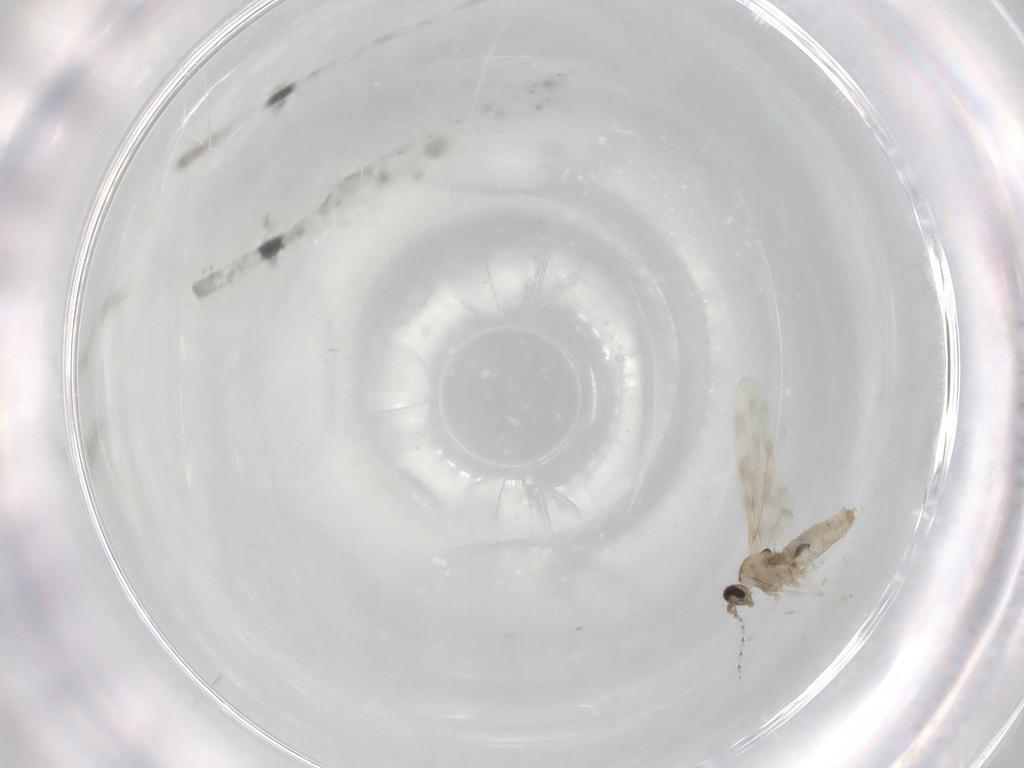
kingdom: Animalia
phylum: Arthropoda
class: Insecta
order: Diptera
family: Cecidomyiidae
